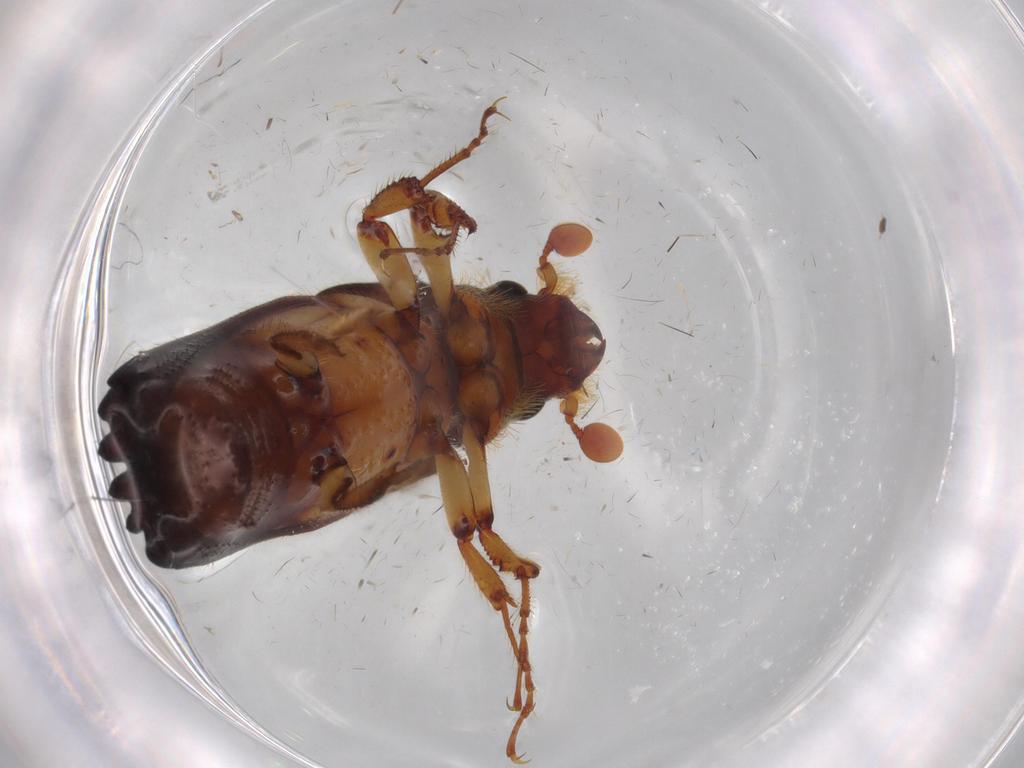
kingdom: Animalia
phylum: Arthropoda
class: Insecta
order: Coleoptera
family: Curculionidae
